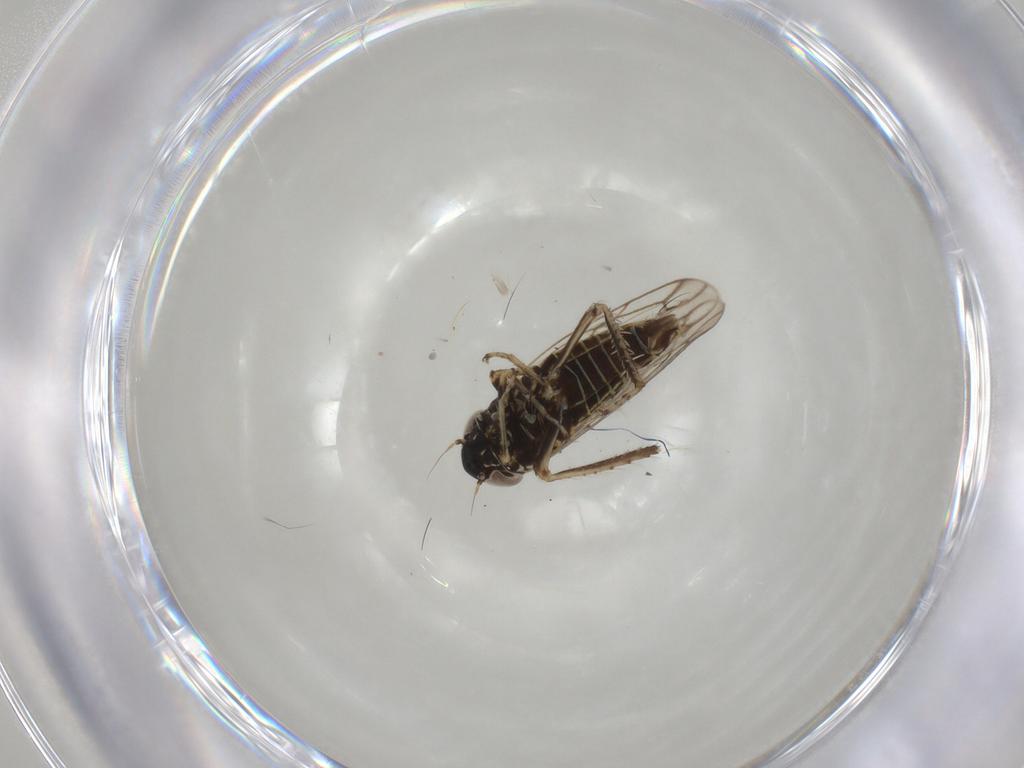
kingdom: Animalia
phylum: Arthropoda
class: Insecta
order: Hemiptera
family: Cicadellidae
